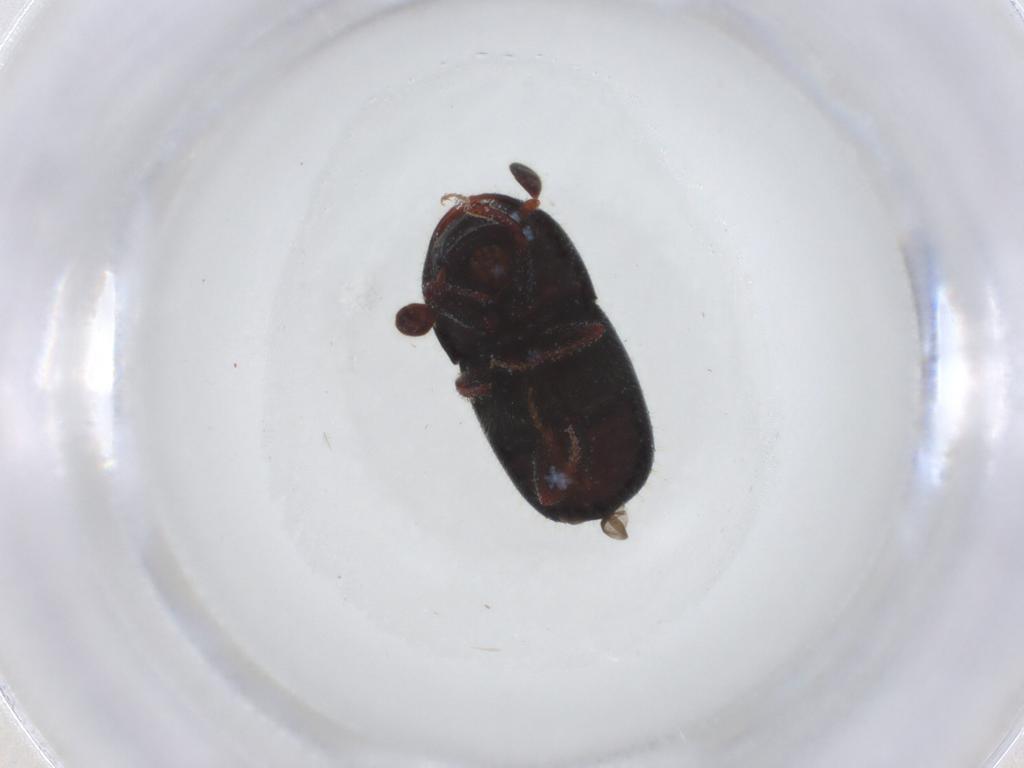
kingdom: Animalia
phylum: Arthropoda
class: Insecta
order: Coleoptera
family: Curculionidae
